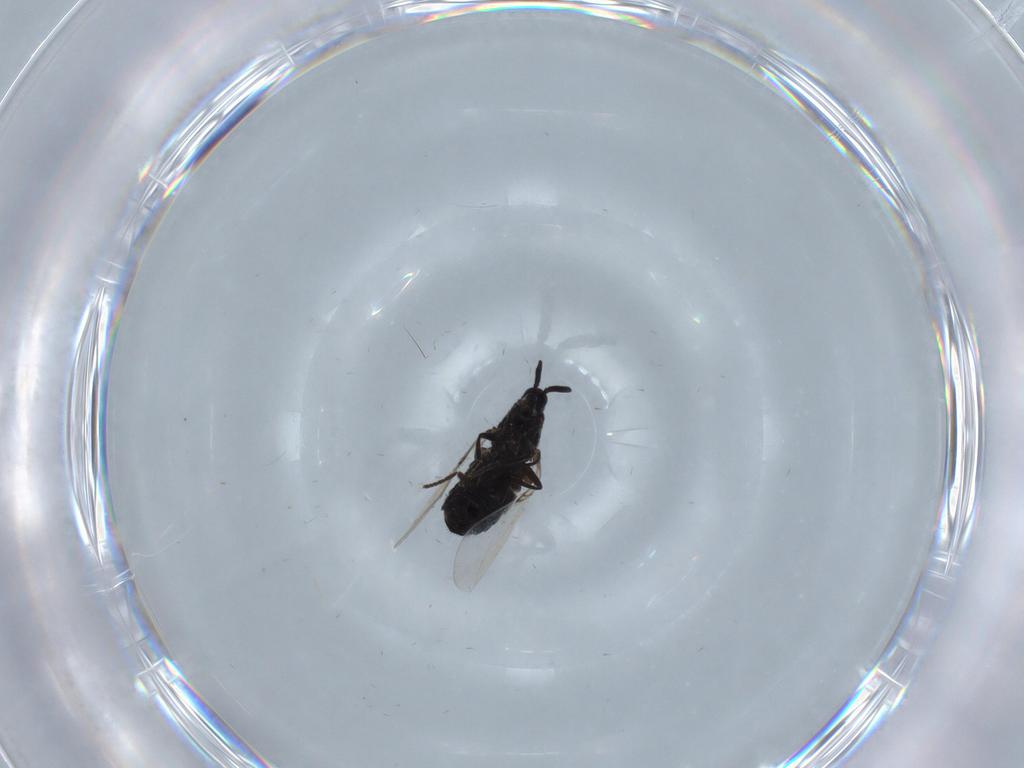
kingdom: Animalia
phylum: Arthropoda
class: Insecta
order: Diptera
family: Scatopsidae
